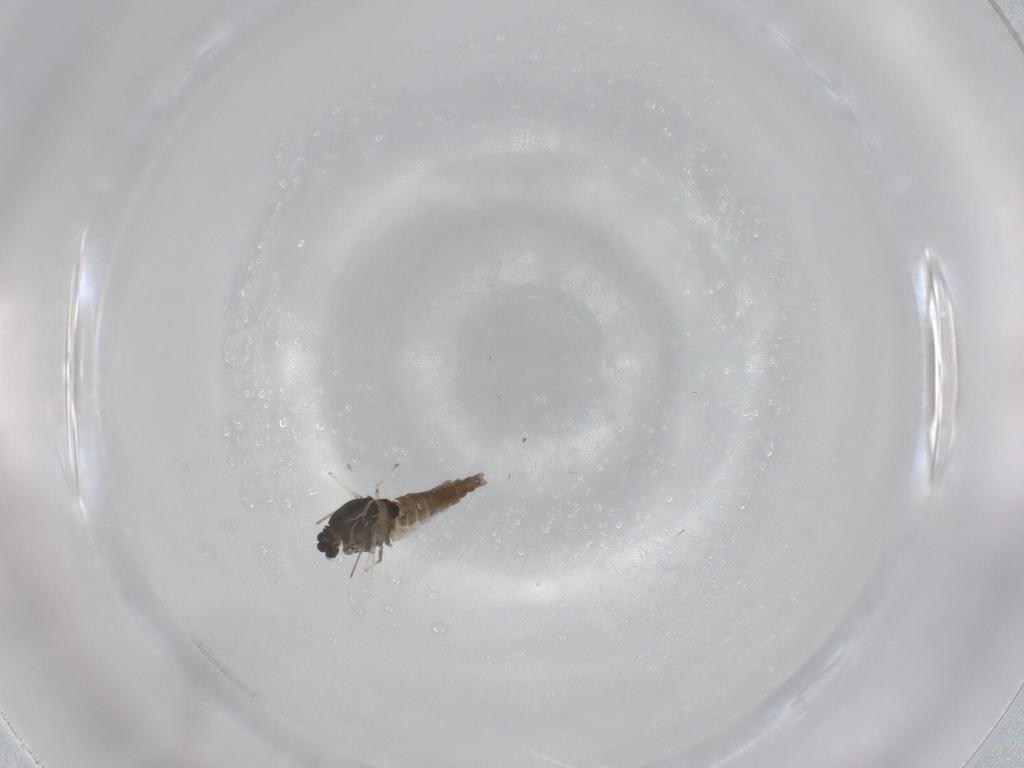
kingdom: Animalia
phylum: Arthropoda
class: Insecta
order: Diptera
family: Chironomidae
